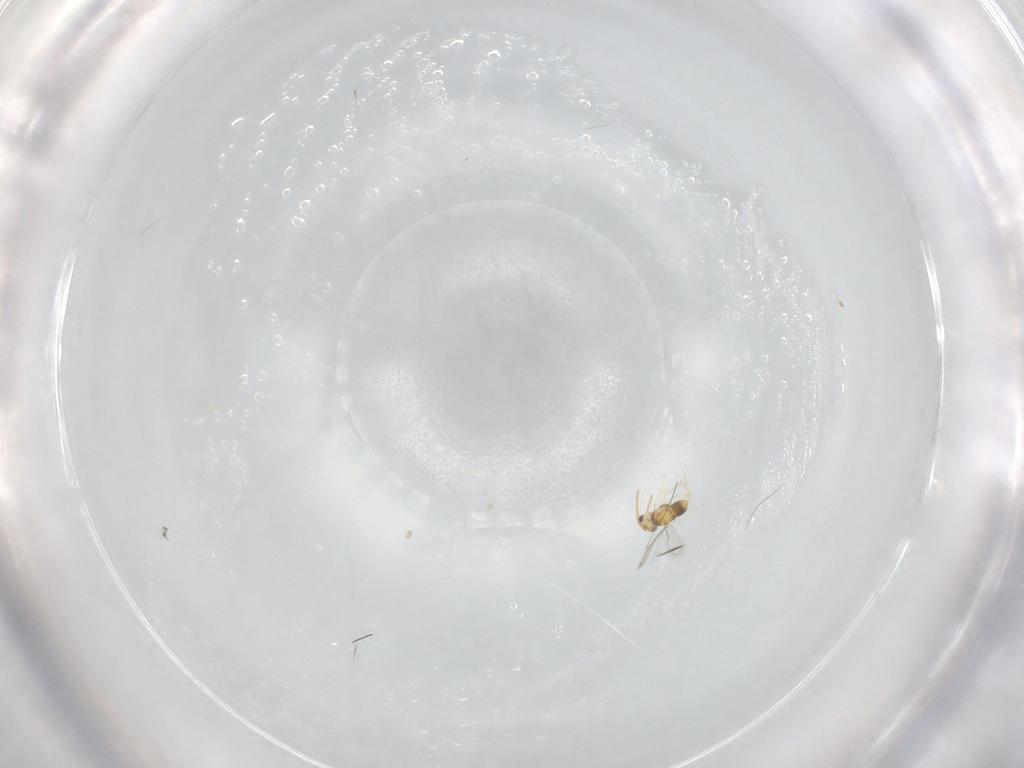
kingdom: Animalia
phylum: Arthropoda
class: Insecta
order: Hymenoptera
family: Aphelinidae
